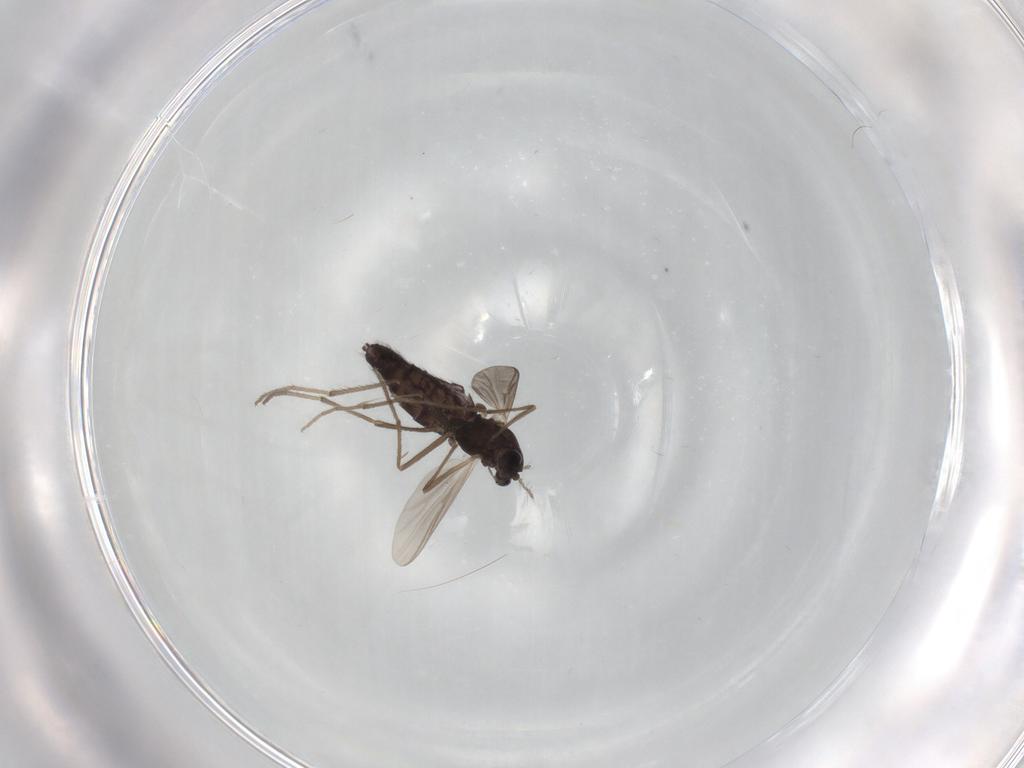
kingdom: Animalia
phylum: Arthropoda
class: Insecta
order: Diptera
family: Chironomidae
